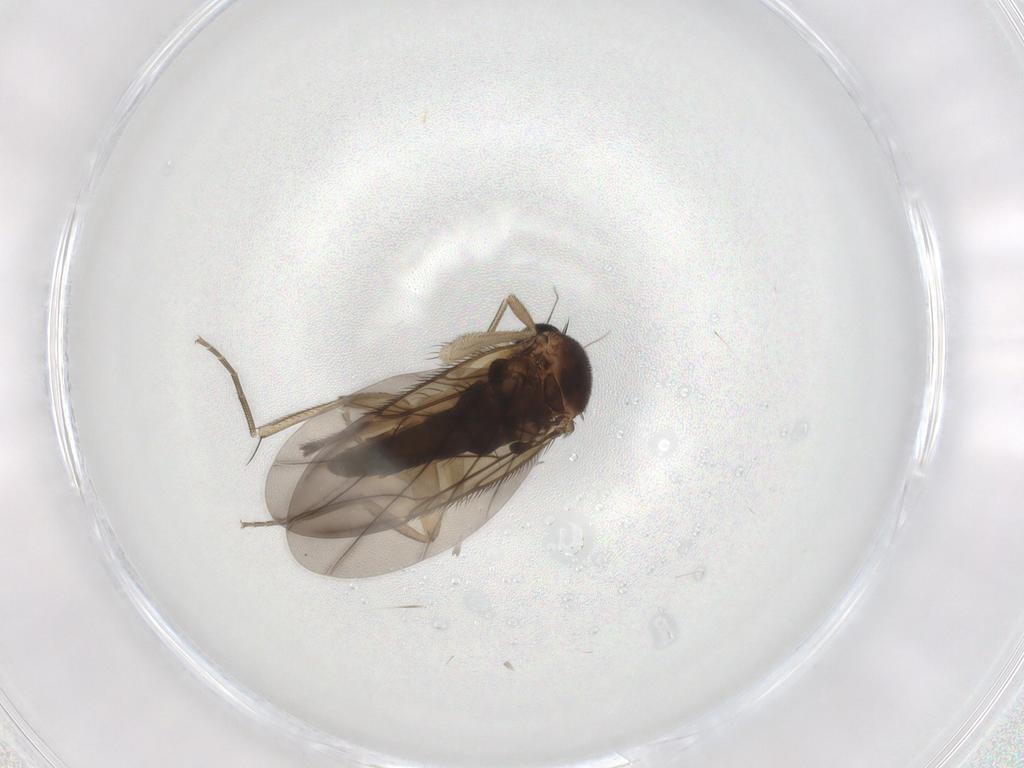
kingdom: Animalia
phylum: Arthropoda
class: Insecta
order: Diptera
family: Phoridae
